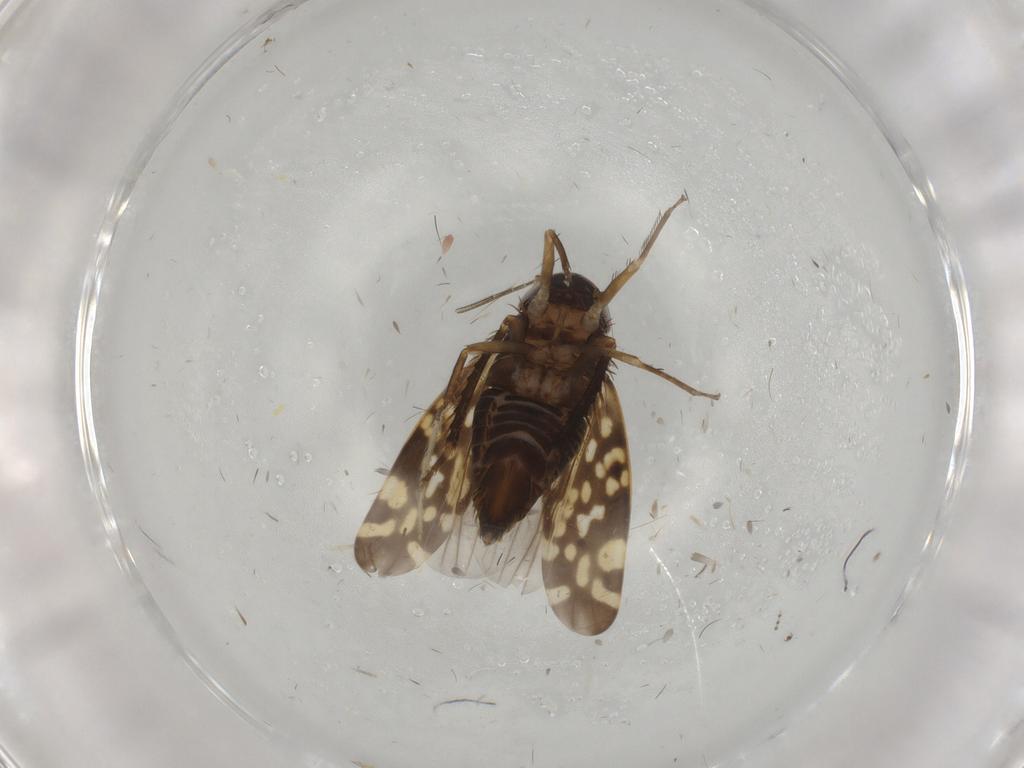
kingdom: Animalia
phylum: Arthropoda
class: Insecta
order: Hemiptera
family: Cicadellidae
